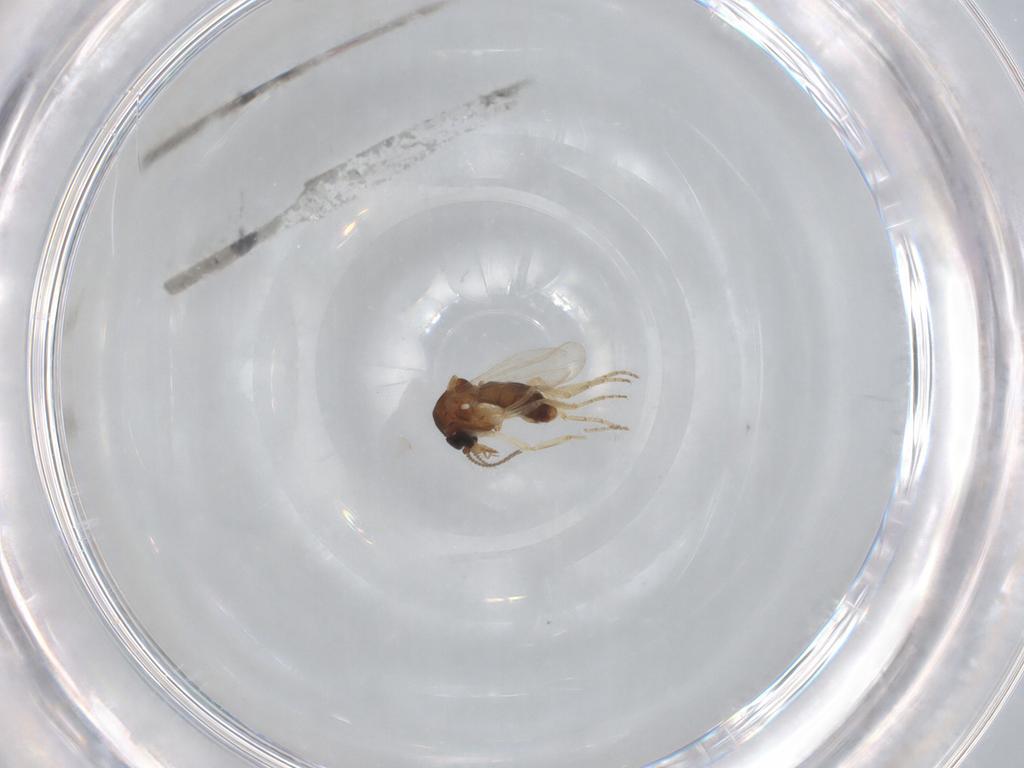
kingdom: Animalia
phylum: Arthropoda
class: Insecta
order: Diptera
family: Ceratopogonidae
